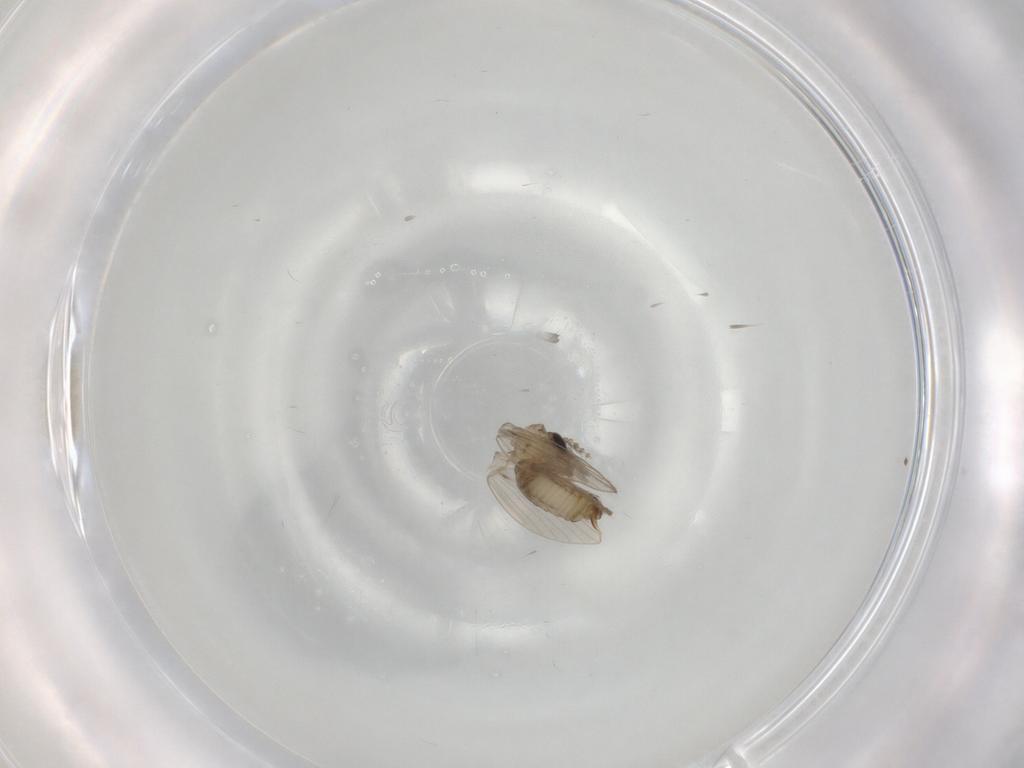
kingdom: Animalia
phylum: Arthropoda
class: Insecta
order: Diptera
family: Psychodidae
